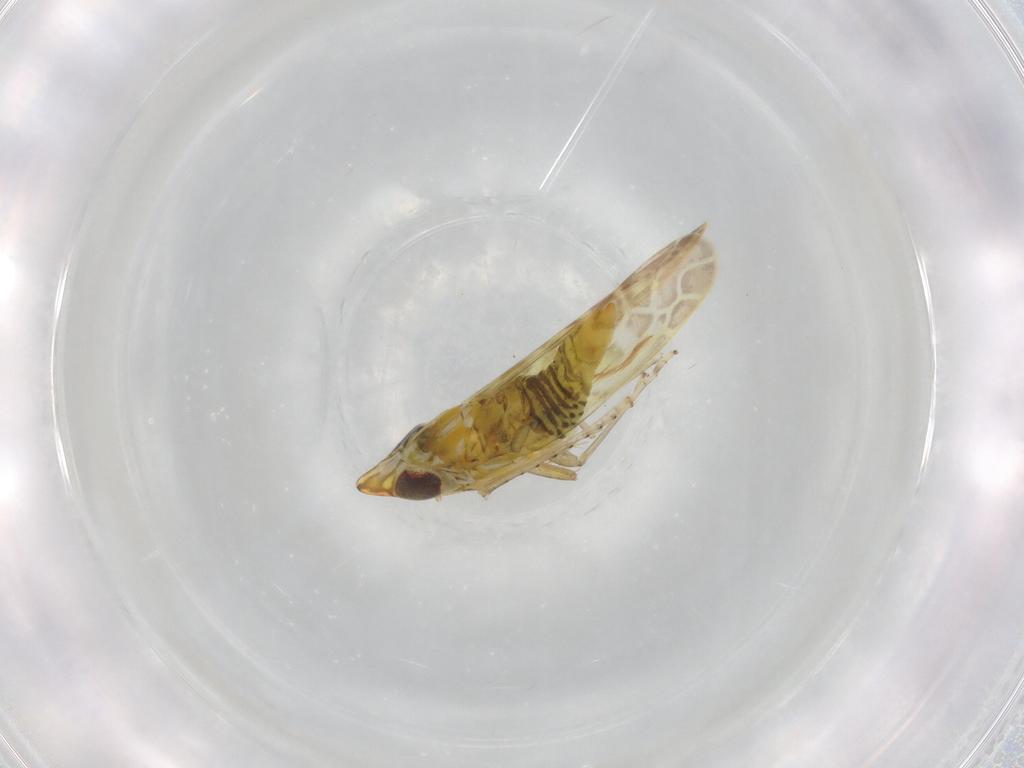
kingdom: Animalia
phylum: Arthropoda
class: Insecta
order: Hemiptera
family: Cicadellidae
